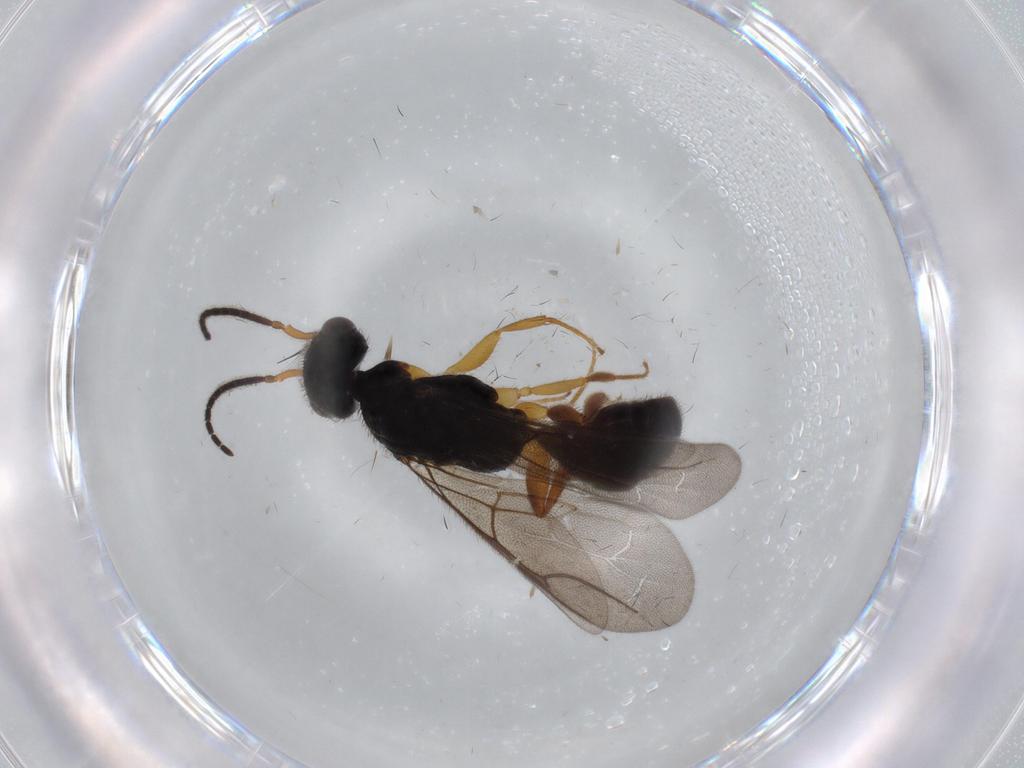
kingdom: Animalia
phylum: Arthropoda
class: Insecta
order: Hymenoptera
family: Bethylidae
